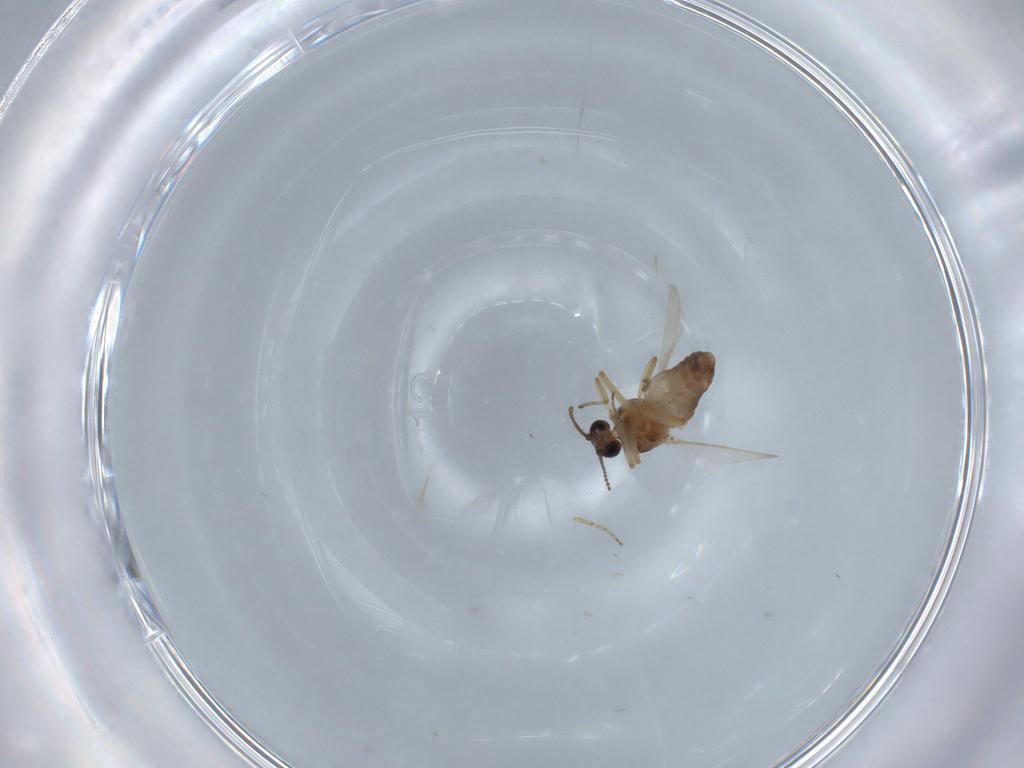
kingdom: Animalia
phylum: Arthropoda
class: Insecta
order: Diptera
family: Ceratopogonidae
